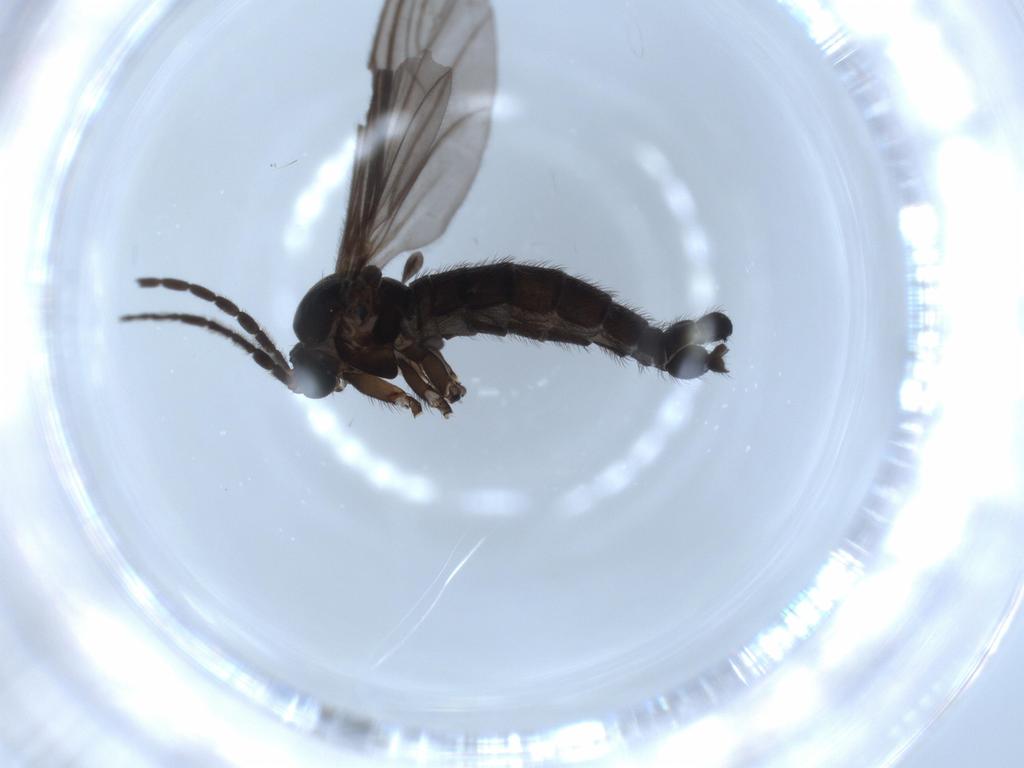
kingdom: Animalia
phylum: Arthropoda
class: Insecta
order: Diptera
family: Sciaridae
